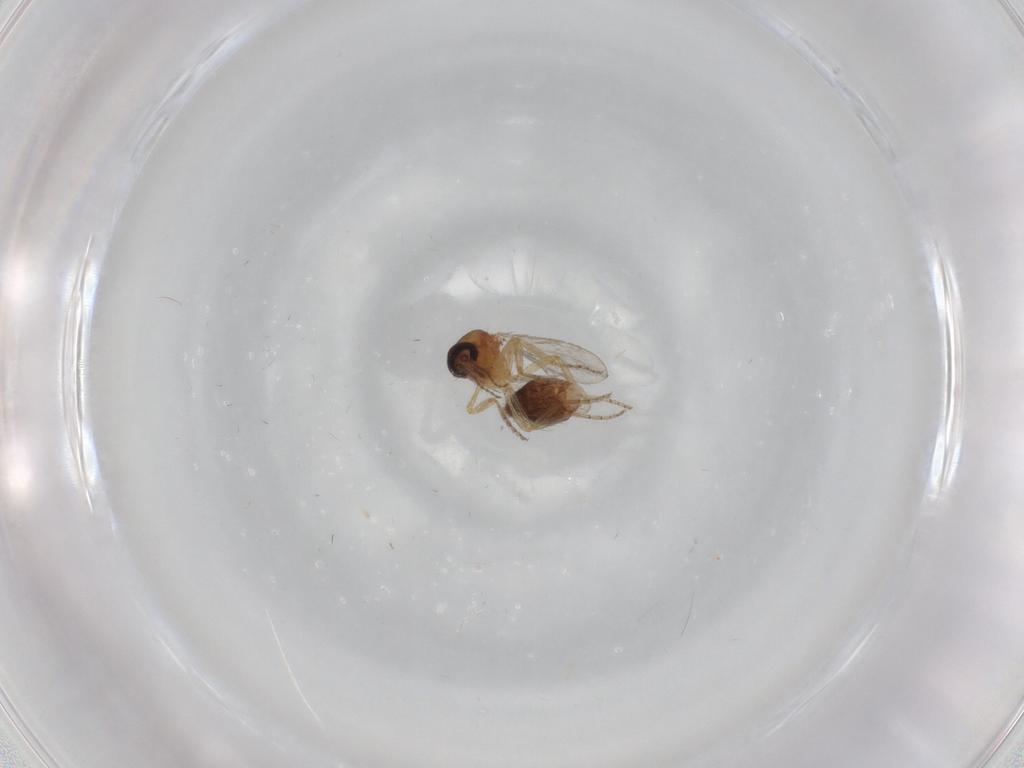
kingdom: Animalia
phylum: Arthropoda
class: Insecta
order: Diptera
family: Ceratopogonidae
